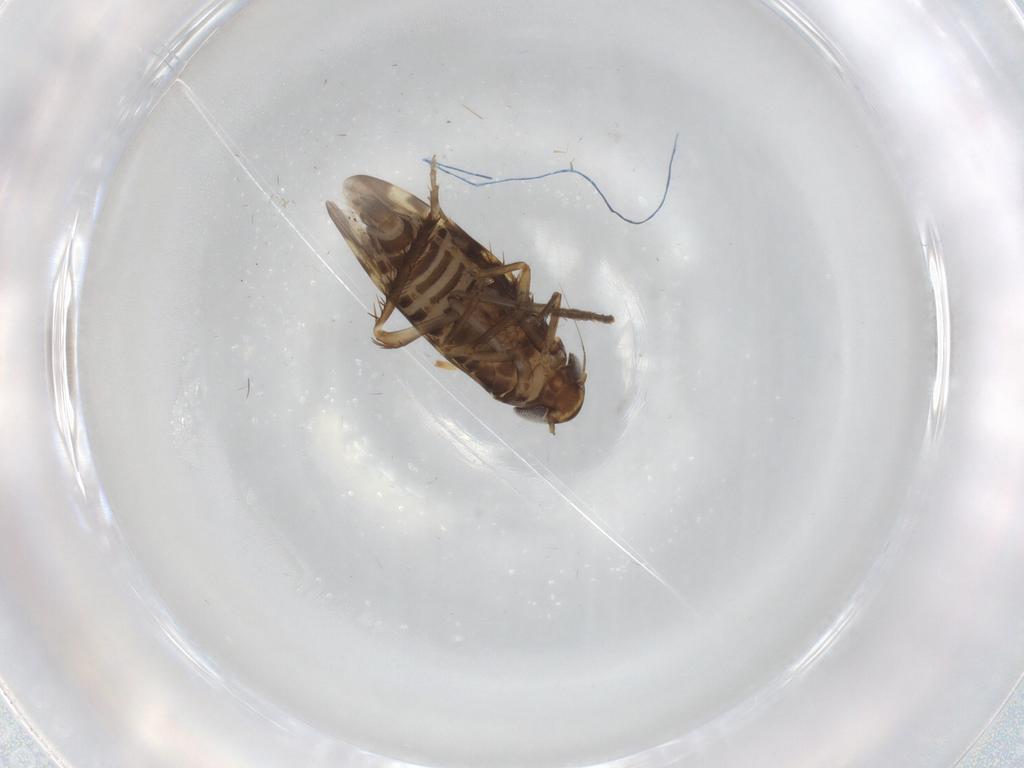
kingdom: Animalia
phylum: Arthropoda
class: Insecta
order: Hemiptera
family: Cicadellidae
